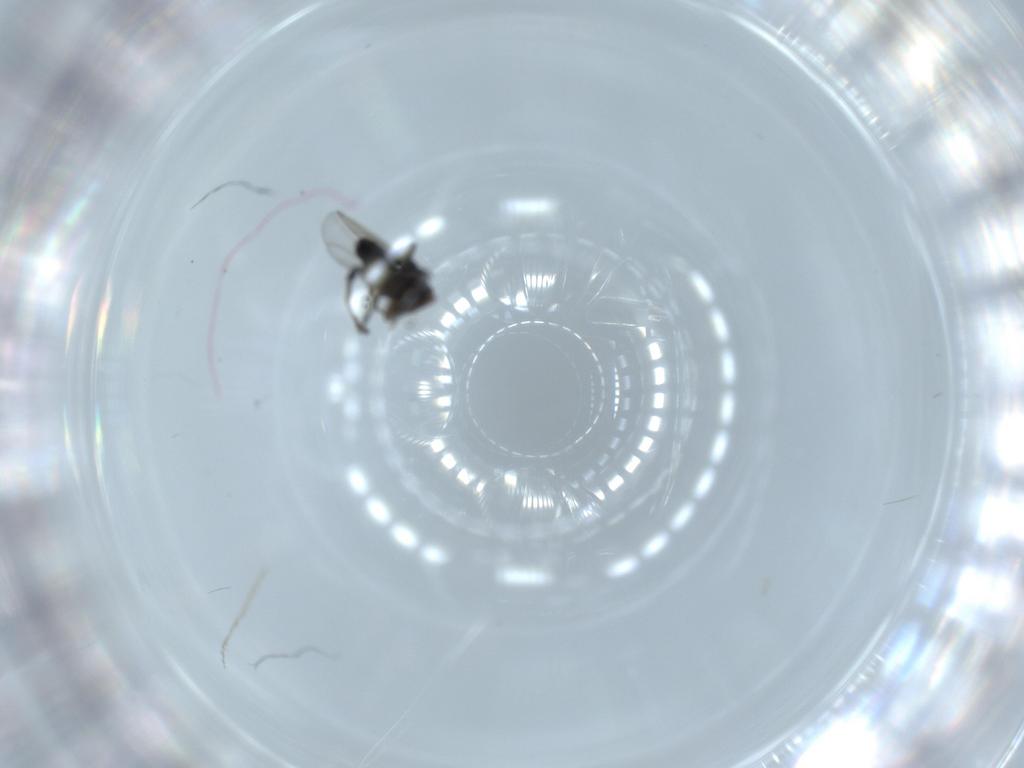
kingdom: Animalia
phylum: Arthropoda
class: Insecta
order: Diptera
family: Phoridae
